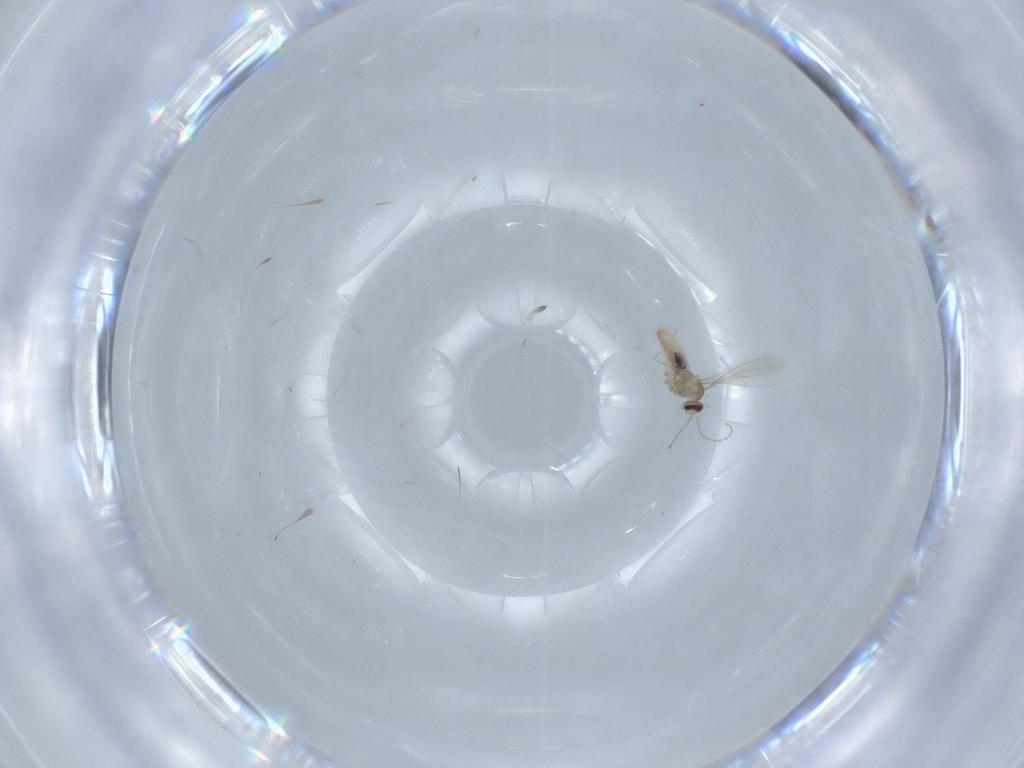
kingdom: Animalia
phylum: Arthropoda
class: Insecta
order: Diptera
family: Cecidomyiidae
